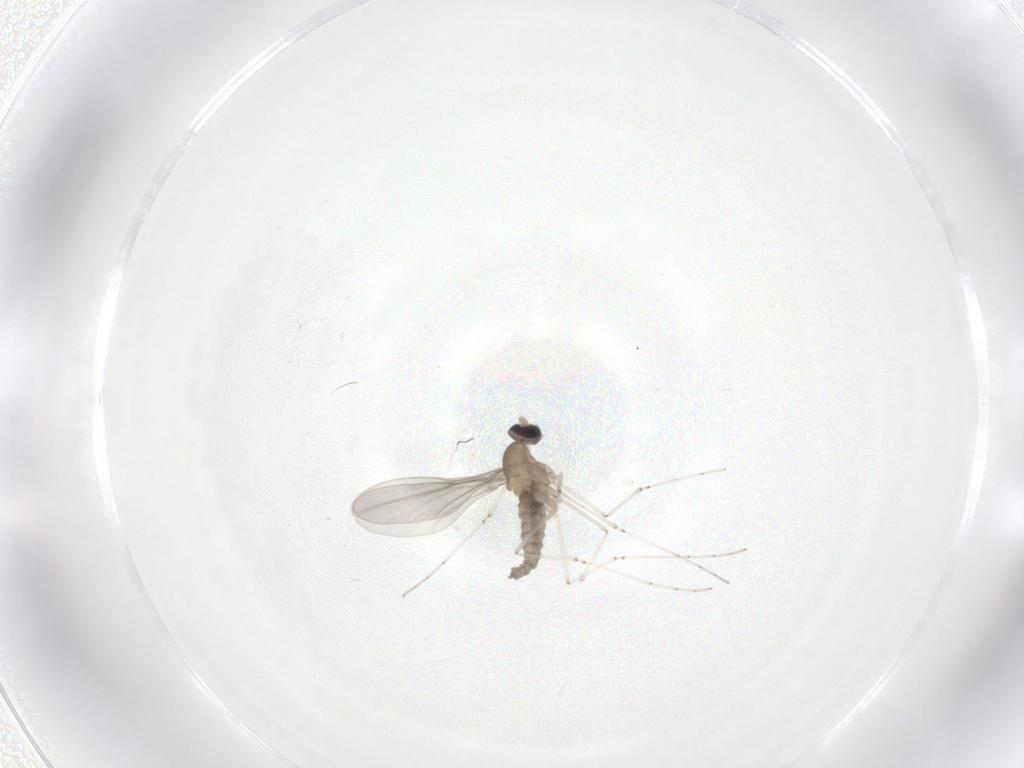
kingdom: Animalia
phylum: Arthropoda
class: Insecta
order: Diptera
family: Cecidomyiidae
